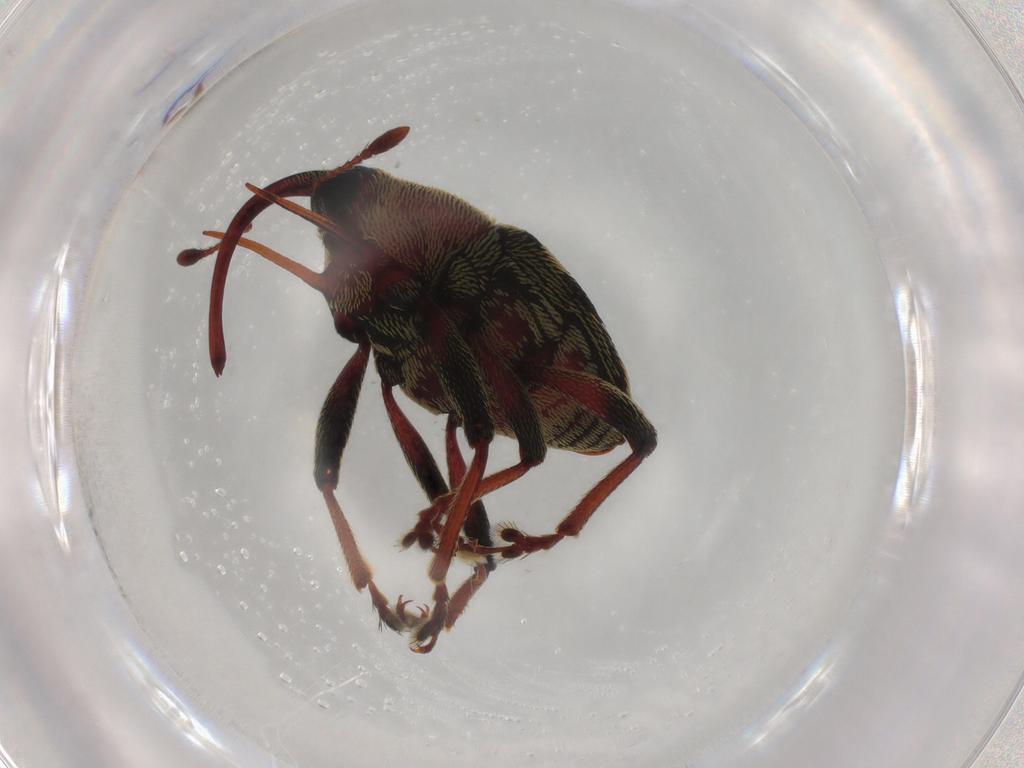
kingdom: Animalia
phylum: Arthropoda
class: Insecta
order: Coleoptera
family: Curculionidae
